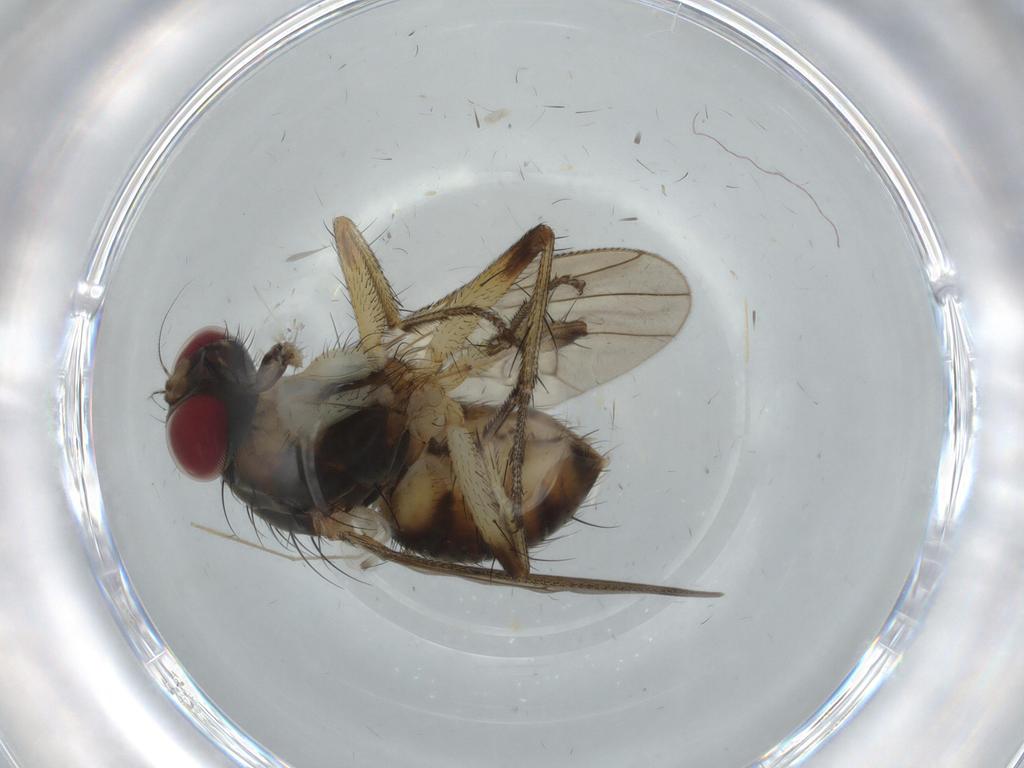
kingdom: Animalia
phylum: Arthropoda
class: Insecta
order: Diptera
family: Muscidae
